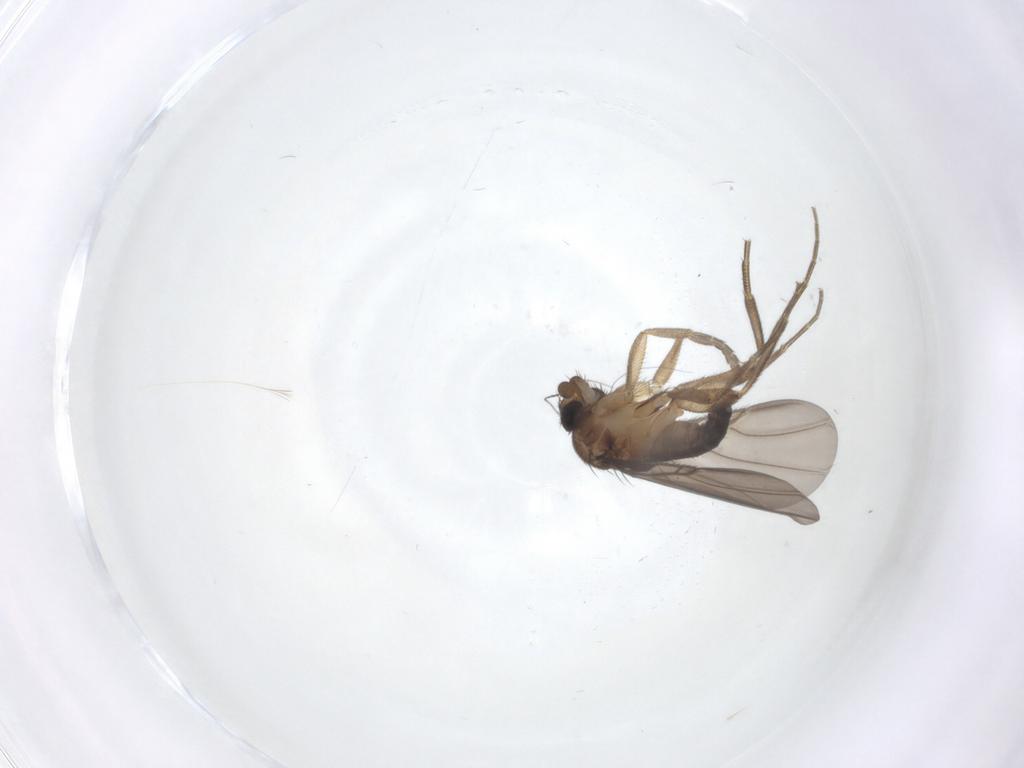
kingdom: Animalia
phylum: Arthropoda
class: Insecta
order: Diptera
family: Psychodidae
